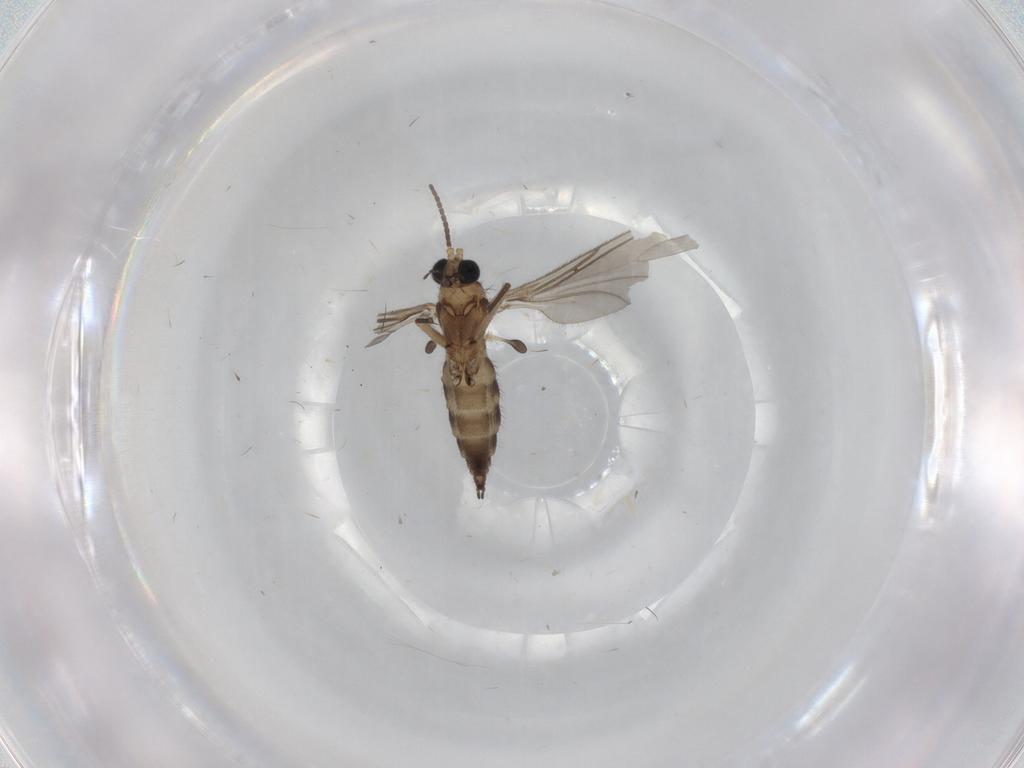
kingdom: Animalia
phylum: Arthropoda
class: Insecta
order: Diptera
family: Sciaridae
